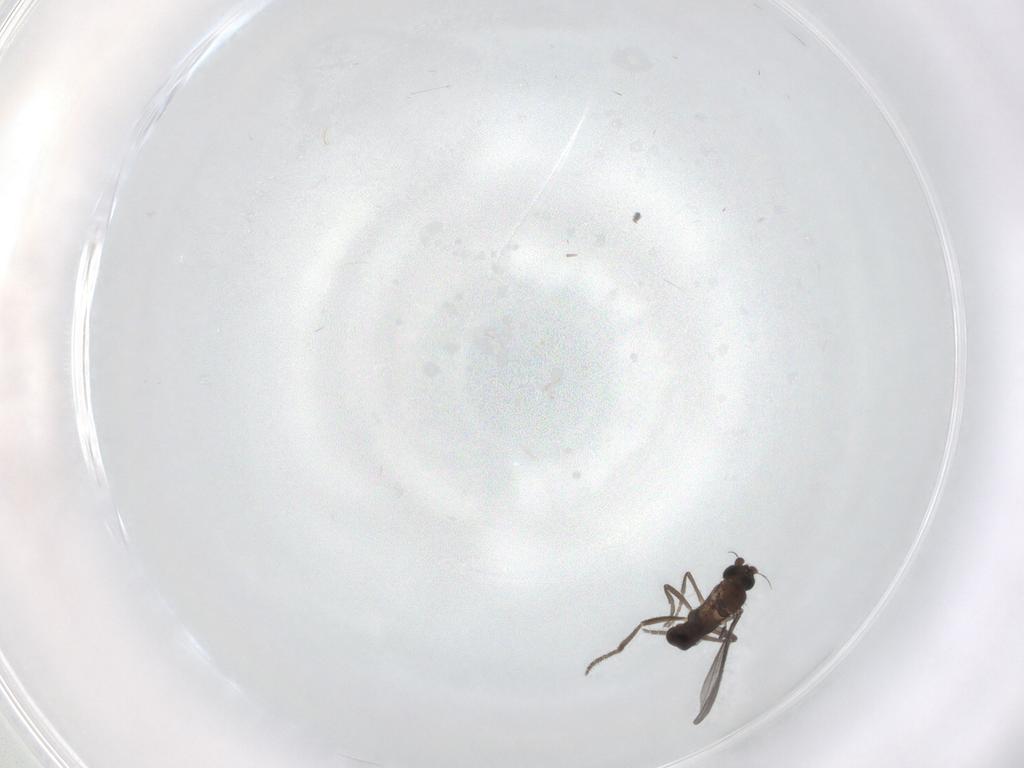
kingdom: Animalia
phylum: Arthropoda
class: Insecta
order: Diptera
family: Phoridae
